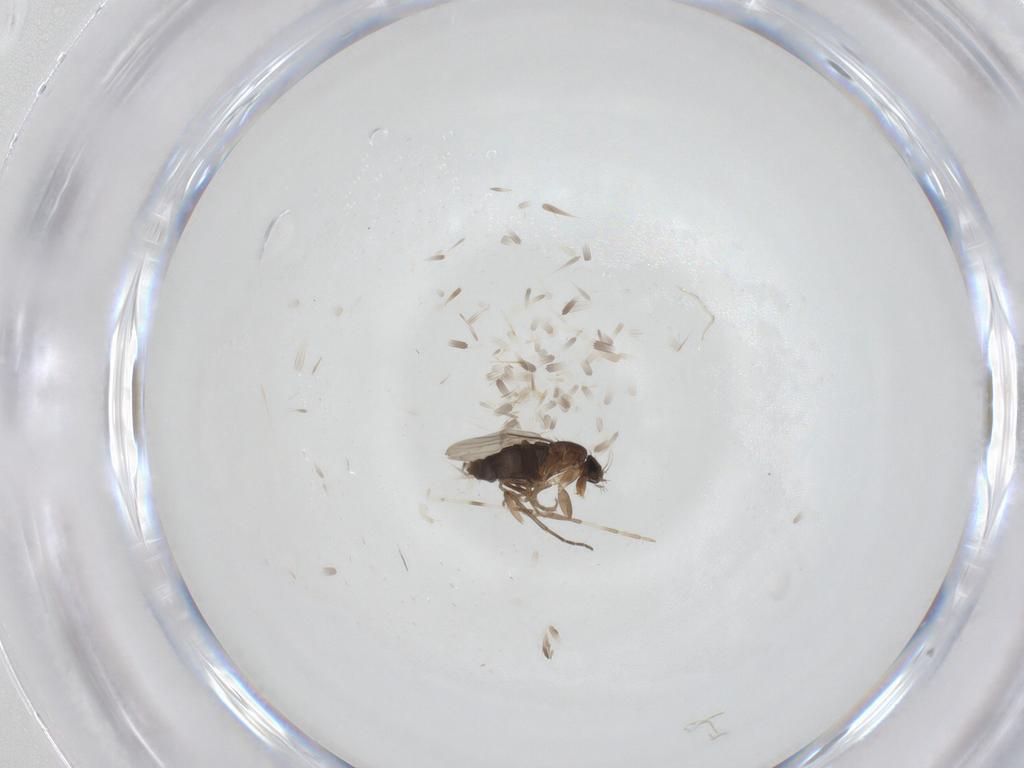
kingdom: Animalia
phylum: Arthropoda
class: Insecta
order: Diptera
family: Phoridae
